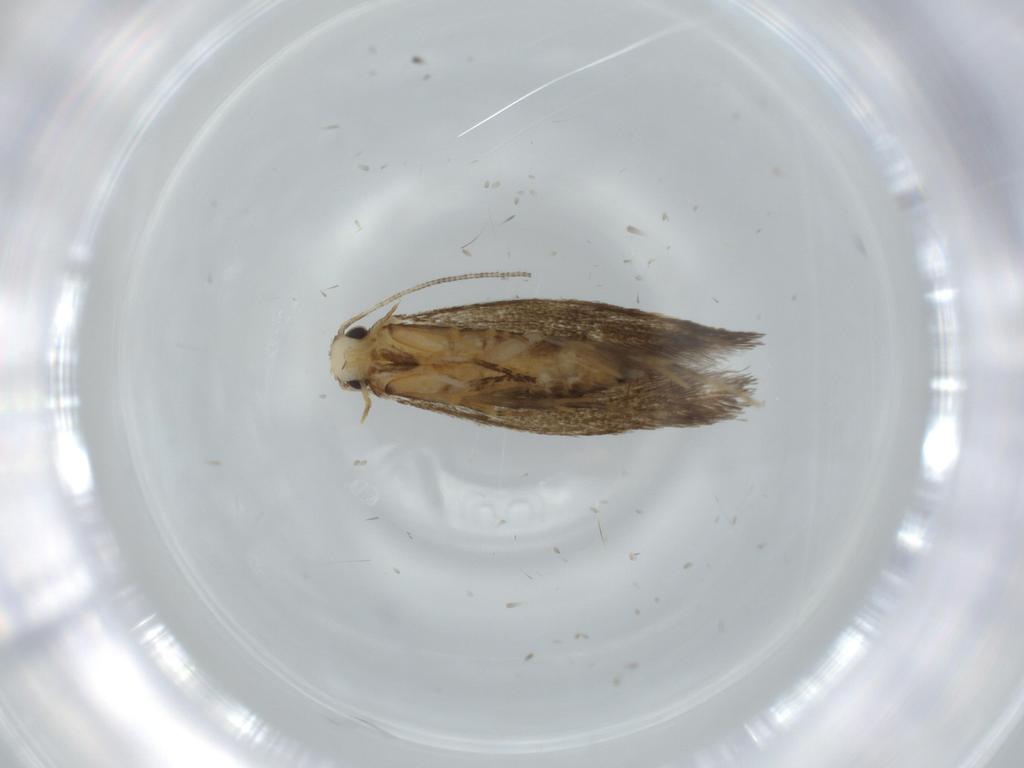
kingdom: Animalia
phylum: Arthropoda
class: Insecta
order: Lepidoptera
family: Tineidae
